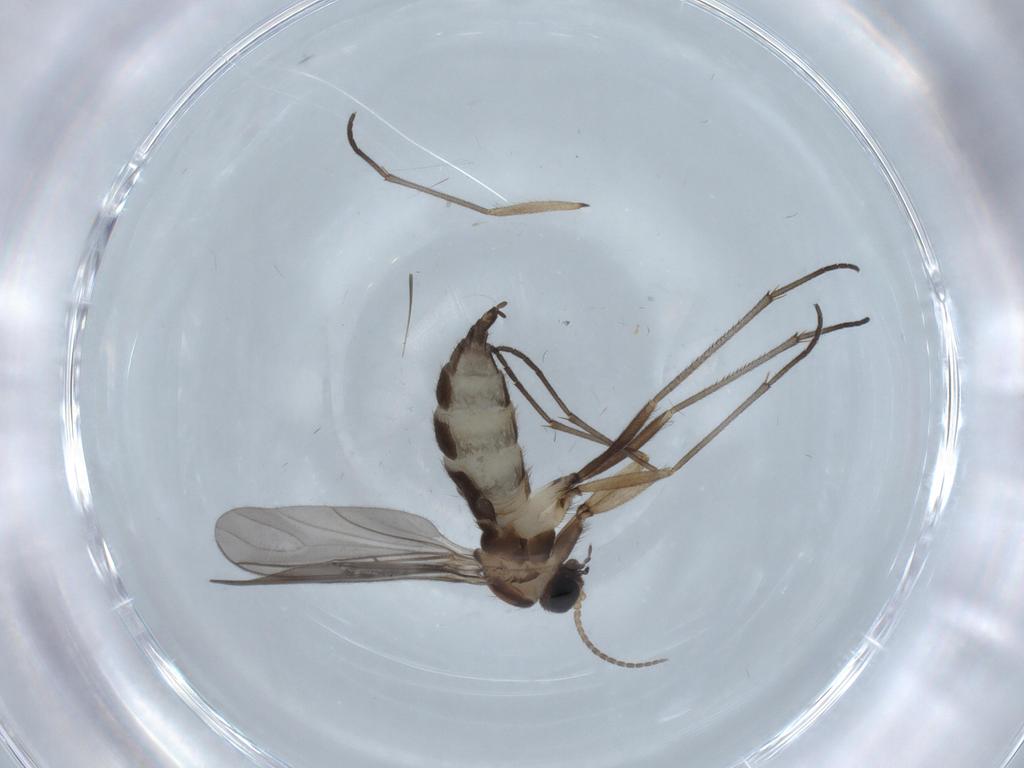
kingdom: Animalia
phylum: Arthropoda
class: Insecta
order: Diptera
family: Sciaridae
